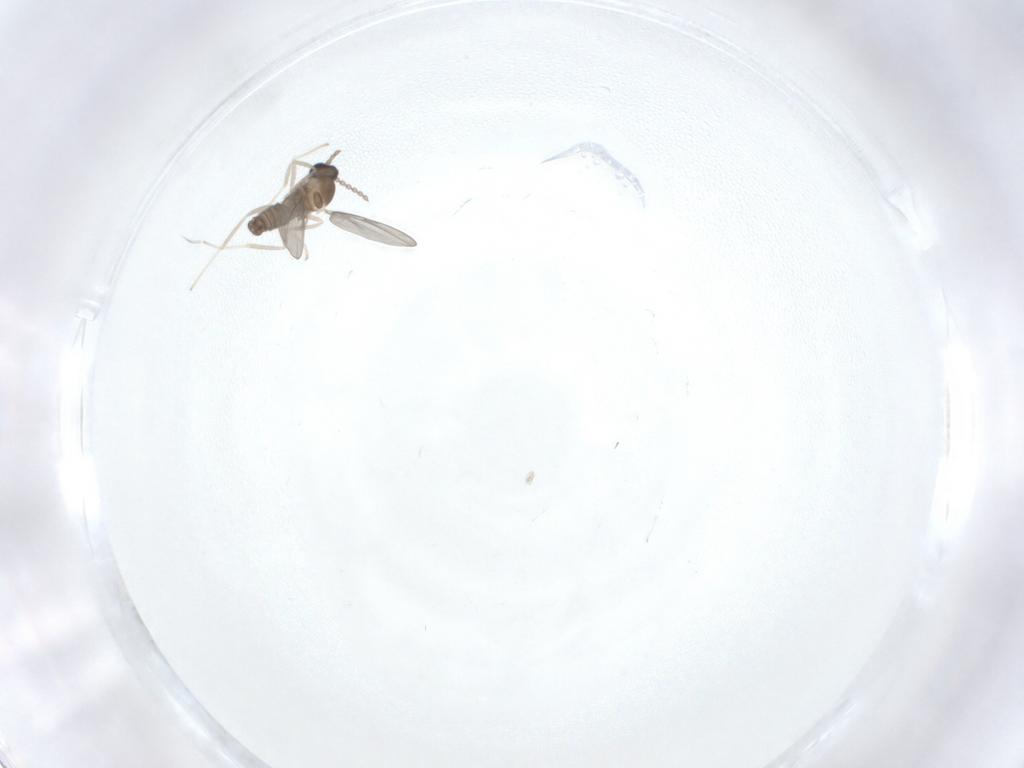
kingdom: Animalia
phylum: Arthropoda
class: Insecta
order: Diptera
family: Cecidomyiidae
